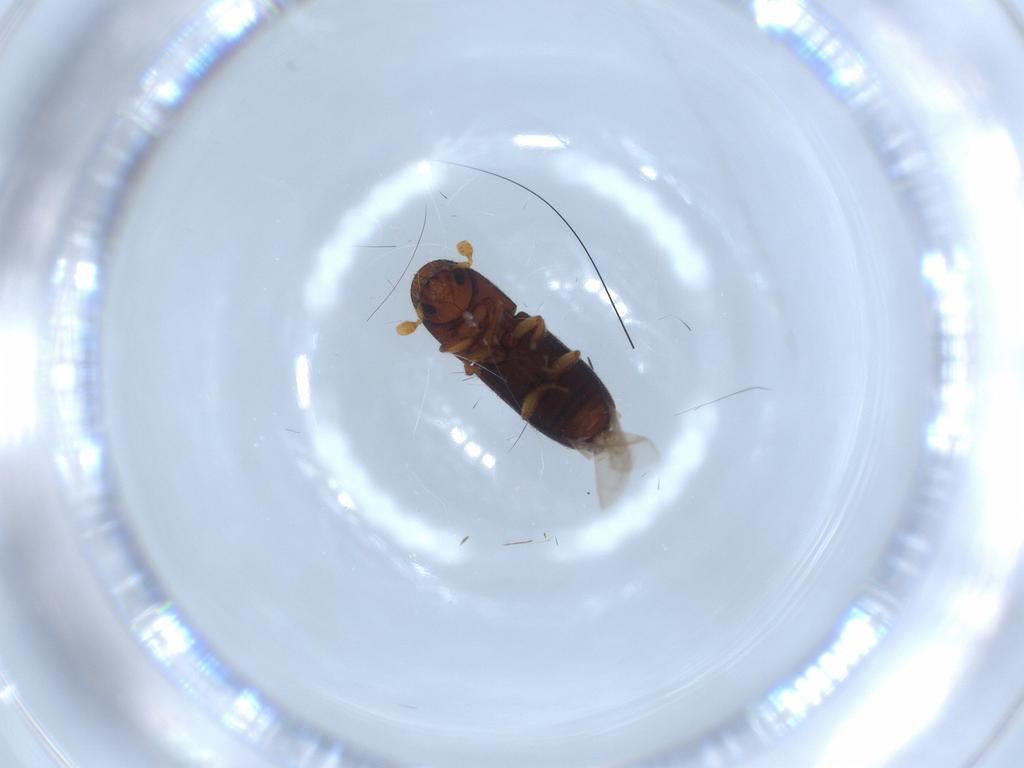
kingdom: Animalia
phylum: Arthropoda
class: Insecta
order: Coleoptera
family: Curculionidae
